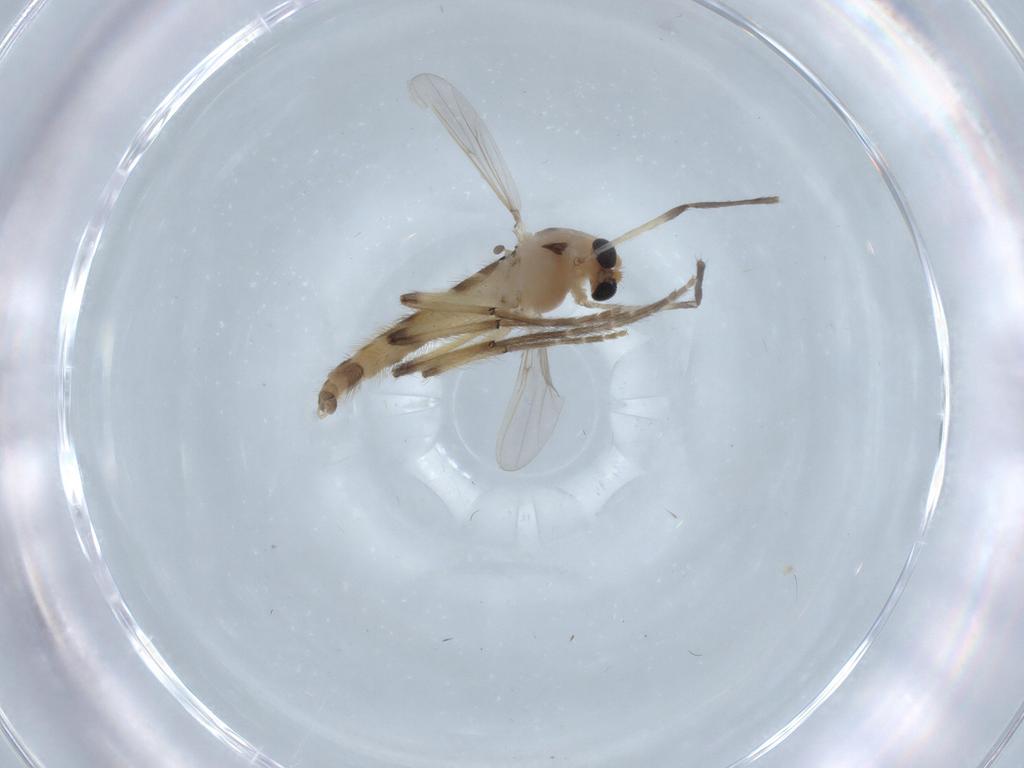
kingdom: Animalia
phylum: Arthropoda
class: Insecta
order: Diptera
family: Chironomidae
